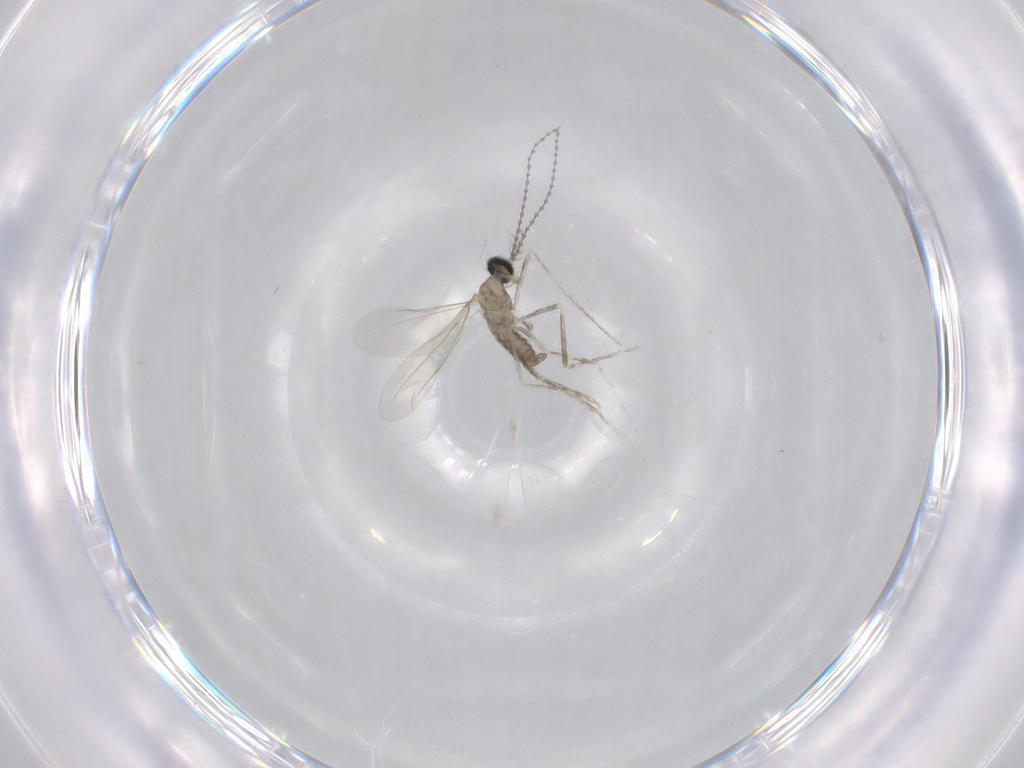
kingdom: Animalia
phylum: Arthropoda
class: Insecta
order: Diptera
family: Cecidomyiidae
